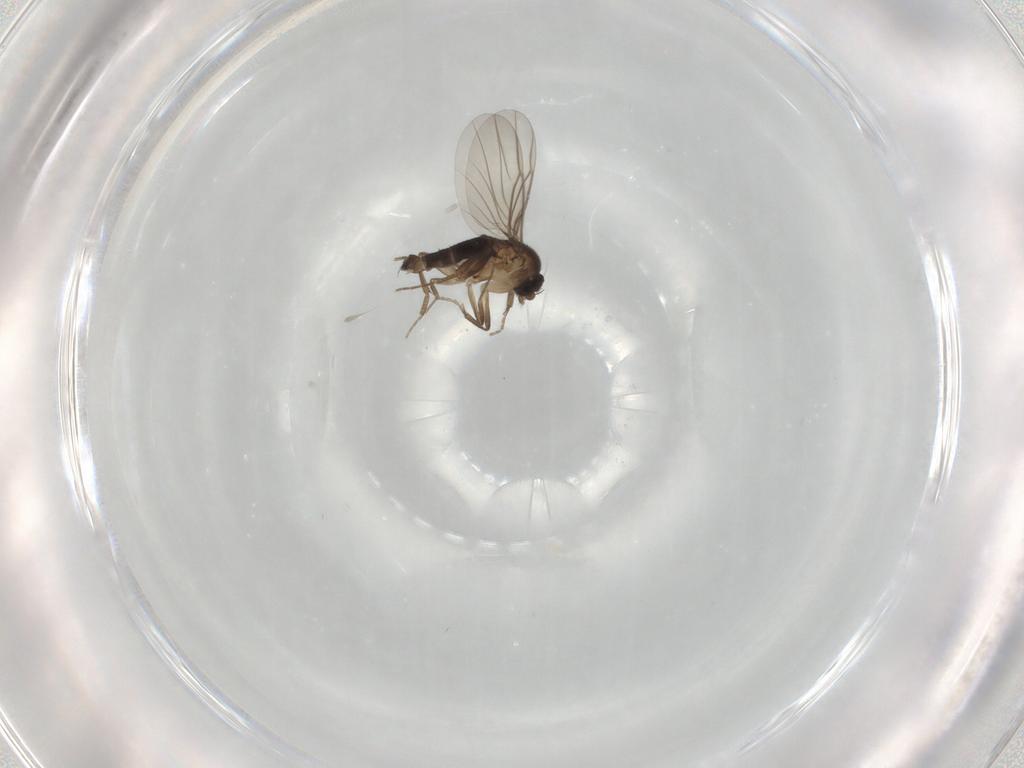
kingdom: Animalia
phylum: Arthropoda
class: Insecta
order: Diptera
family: Phoridae
